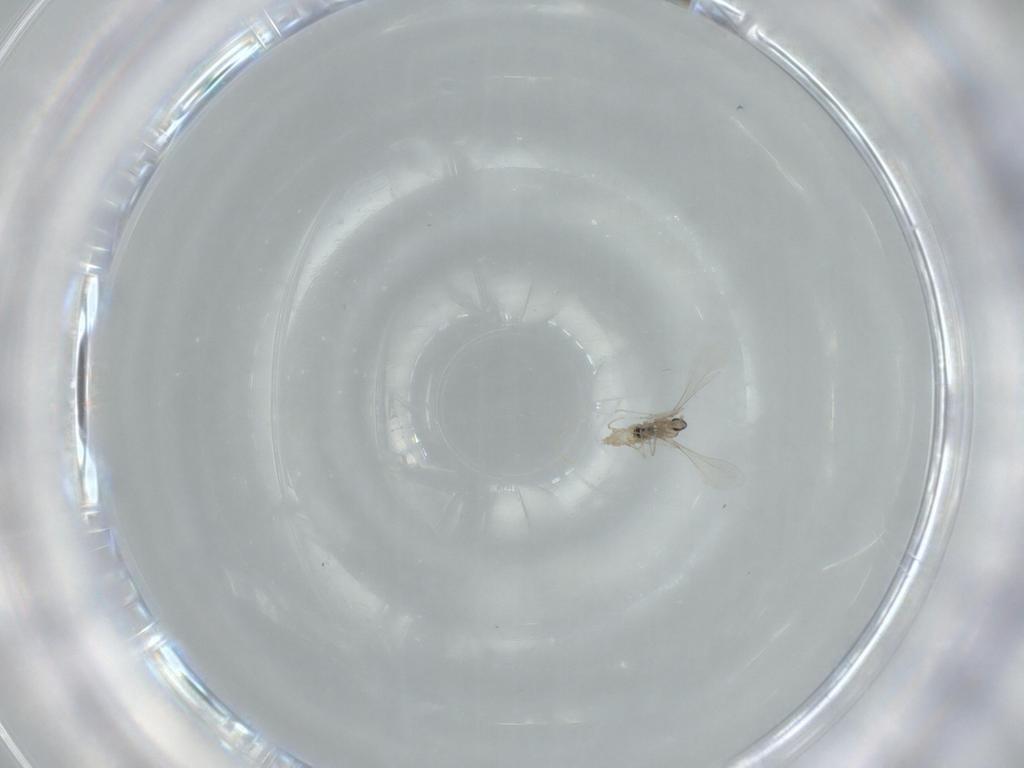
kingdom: Animalia
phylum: Arthropoda
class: Insecta
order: Diptera
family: Cecidomyiidae
